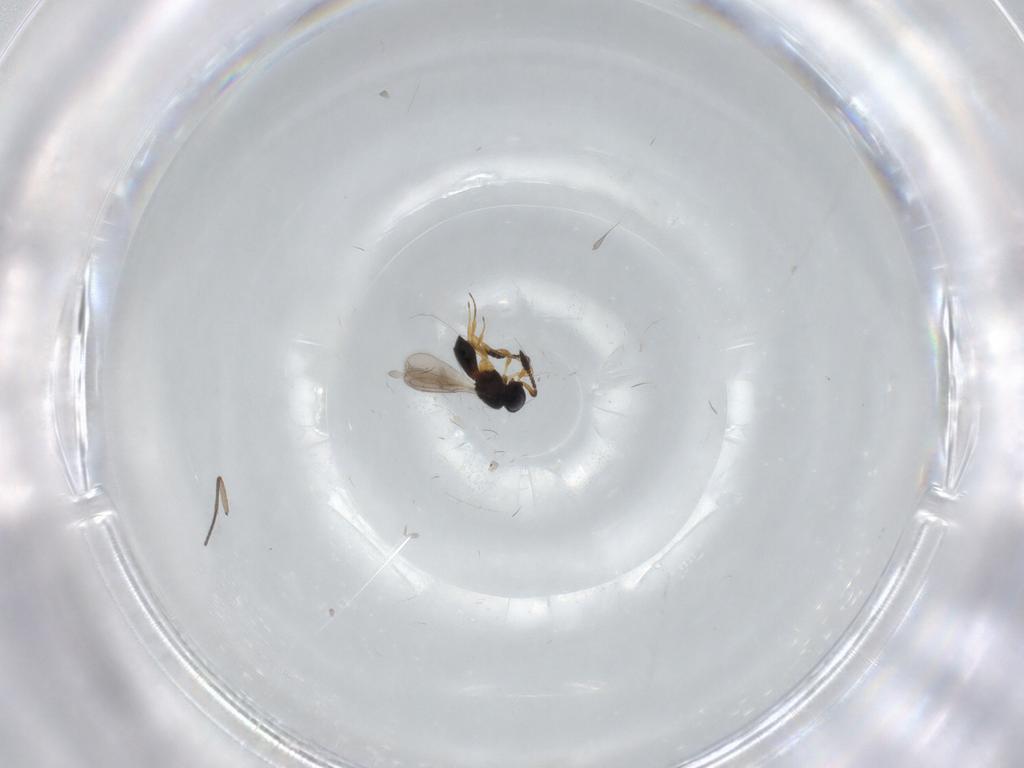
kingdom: Animalia
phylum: Arthropoda
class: Insecta
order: Hymenoptera
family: Scelionidae
